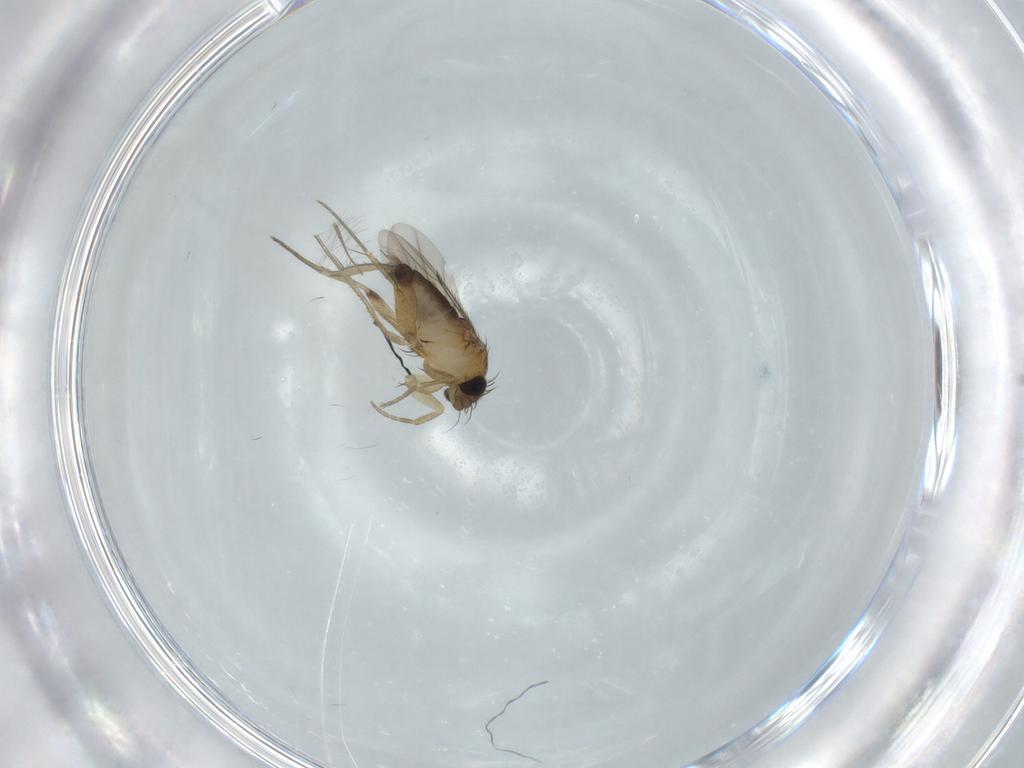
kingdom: Animalia
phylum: Arthropoda
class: Insecta
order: Diptera
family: Phoridae
